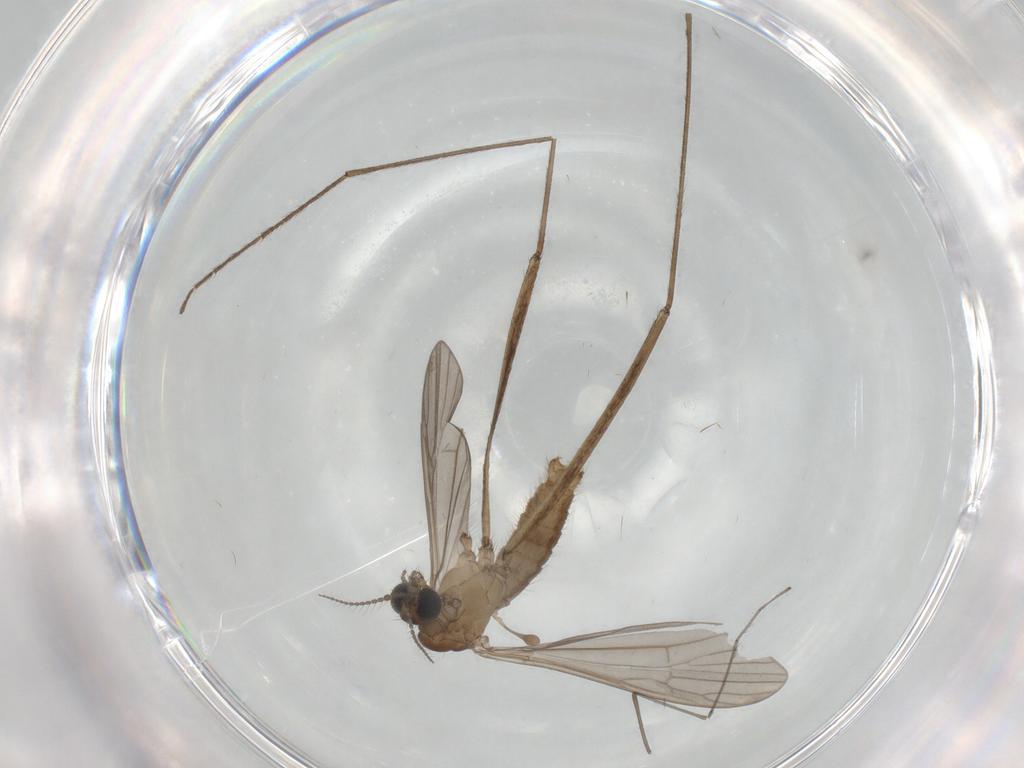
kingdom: Animalia
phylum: Arthropoda
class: Insecta
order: Diptera
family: Limoniidae
